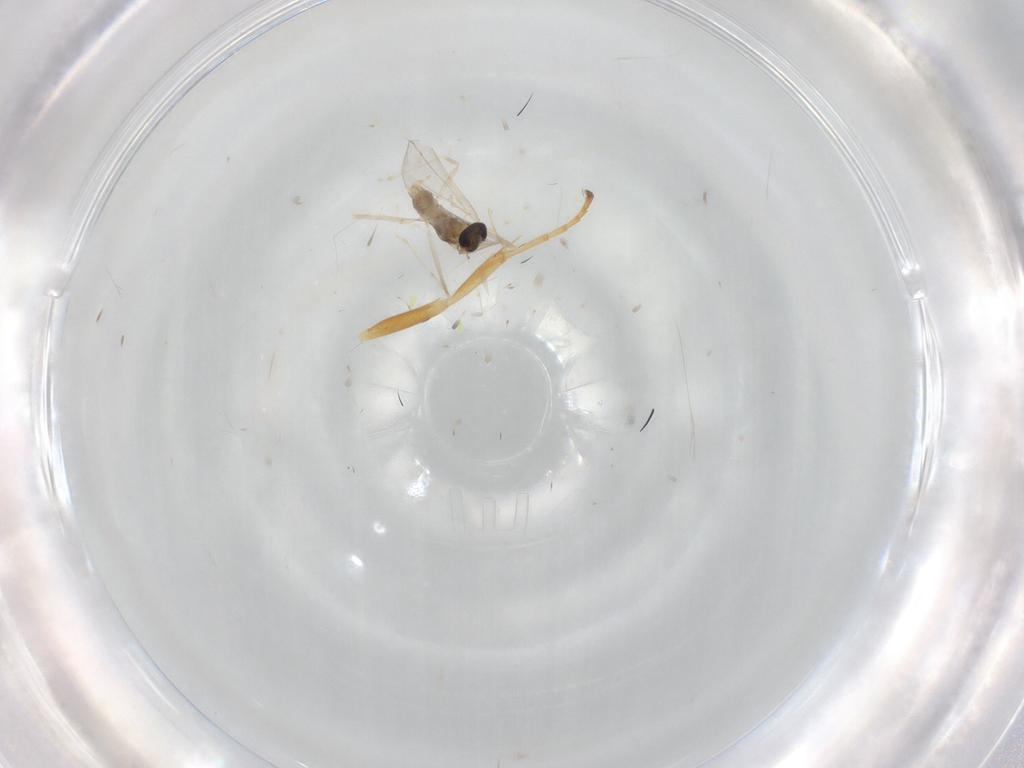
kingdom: Animalia
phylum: Arthropoda
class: Insecta
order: Diptera
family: Cecidomyiidae
